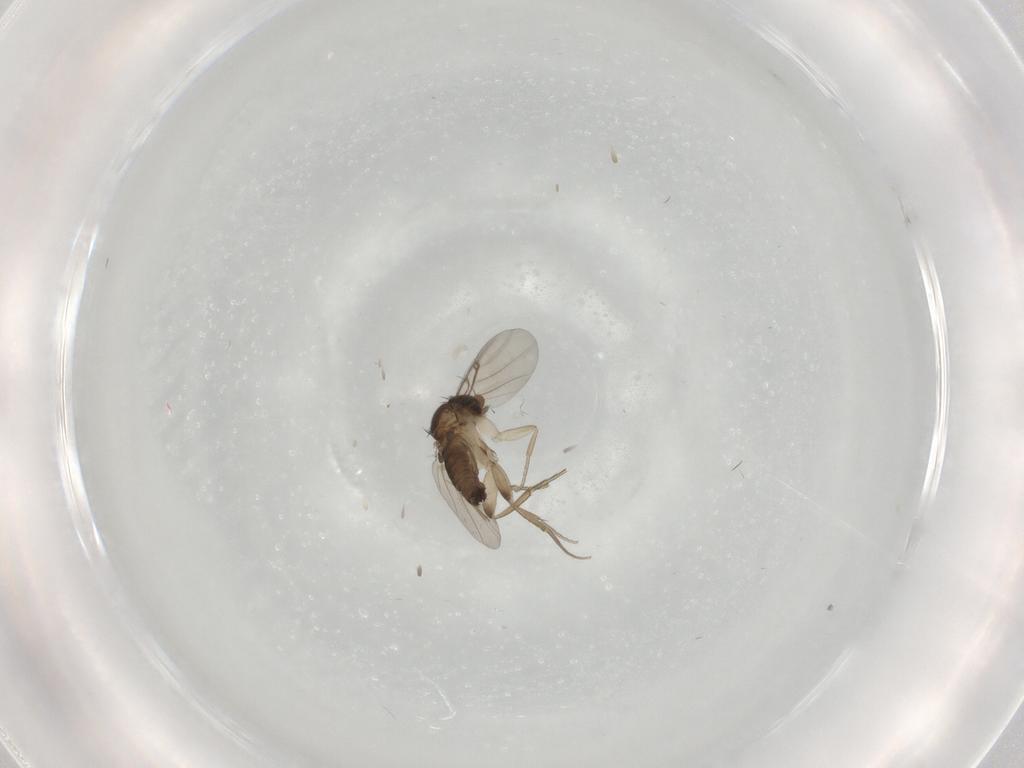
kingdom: Animalia
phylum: Arthropoda
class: Insecta
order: Diptera
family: Phoridae
